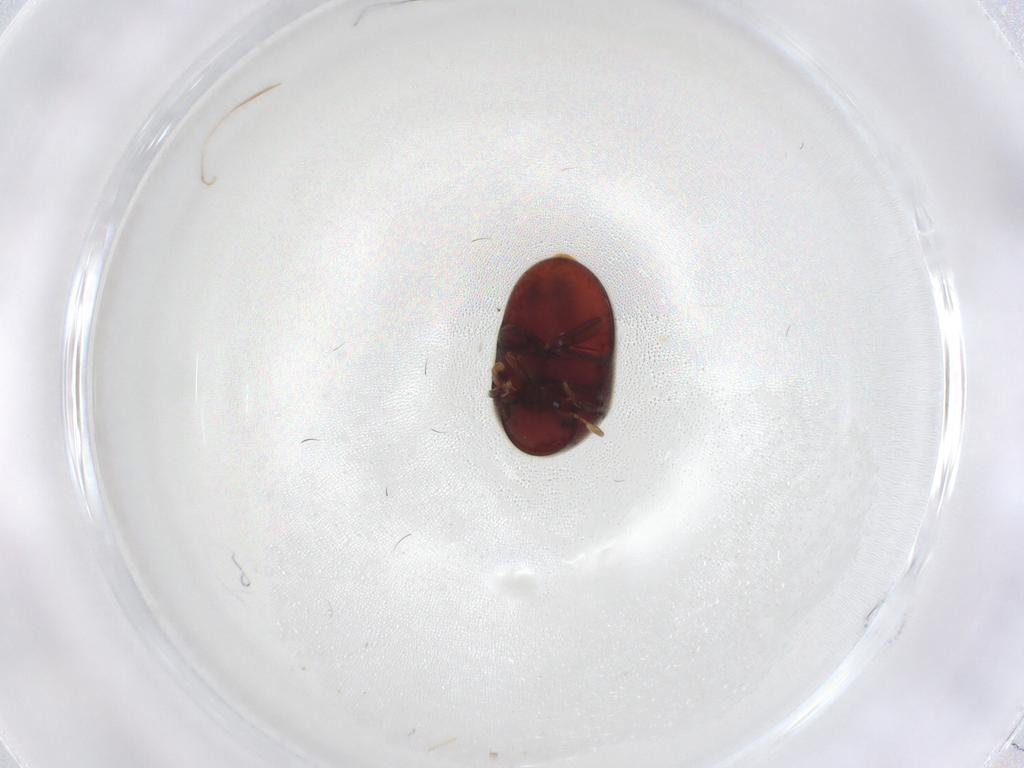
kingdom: Animalia
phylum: Arthropoda
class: Insecta
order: Coleoptera
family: Ptinidae
